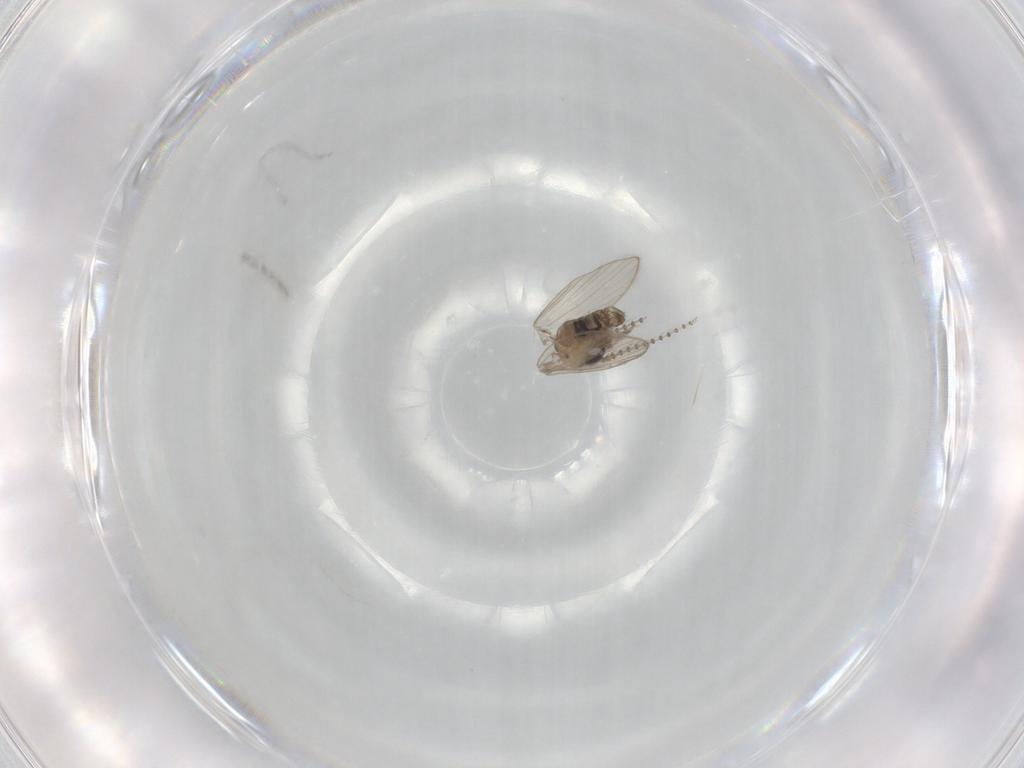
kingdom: Animalia
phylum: Arthropoda
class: Insecta
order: Diptera
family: Psychodidae
